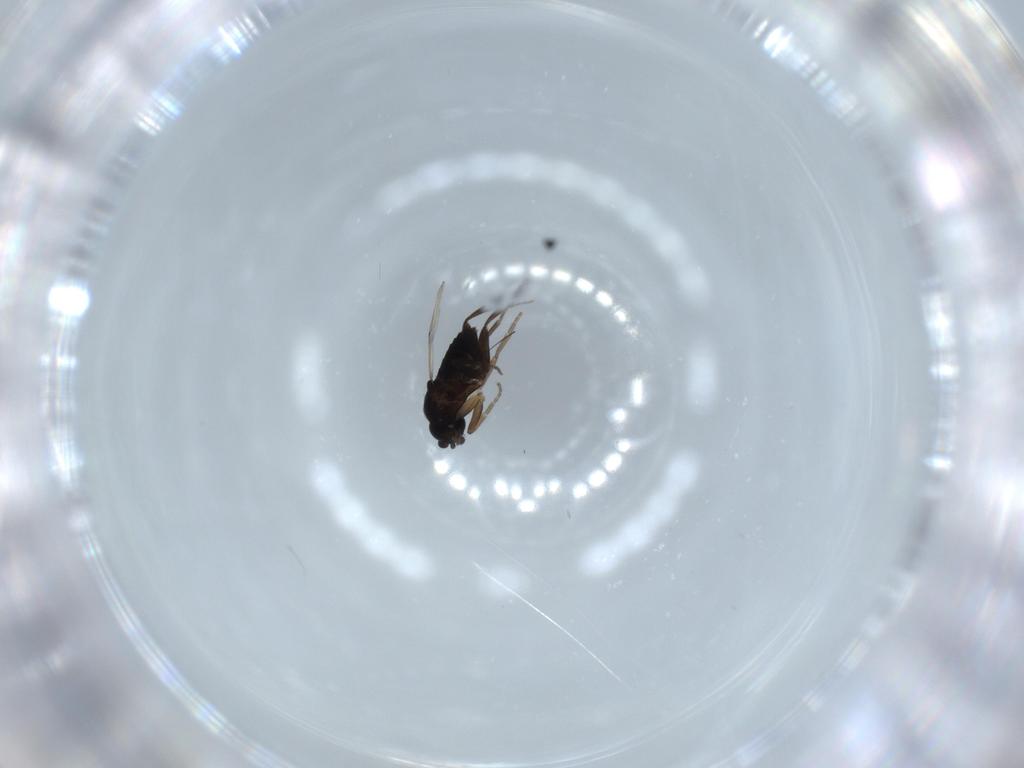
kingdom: Animalia
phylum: Arthropoda
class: Insecta
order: Diptera
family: Phoridae
